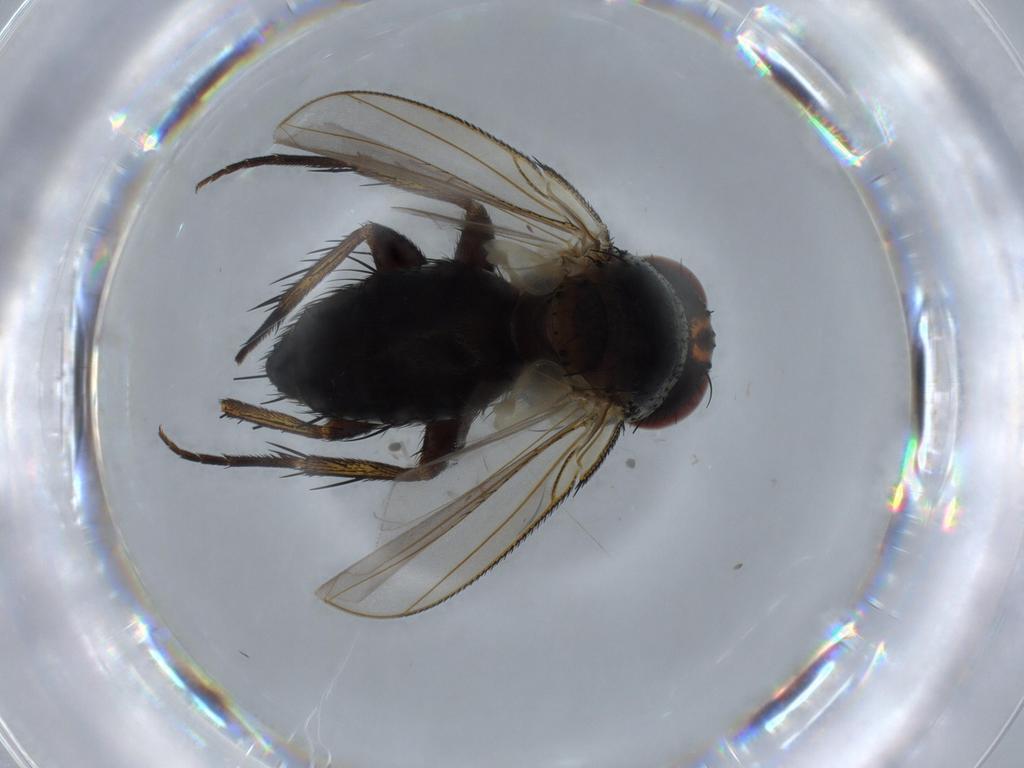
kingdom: Animalia
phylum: Arthropoda
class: Insecta
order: Diptera
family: Tachinidae
